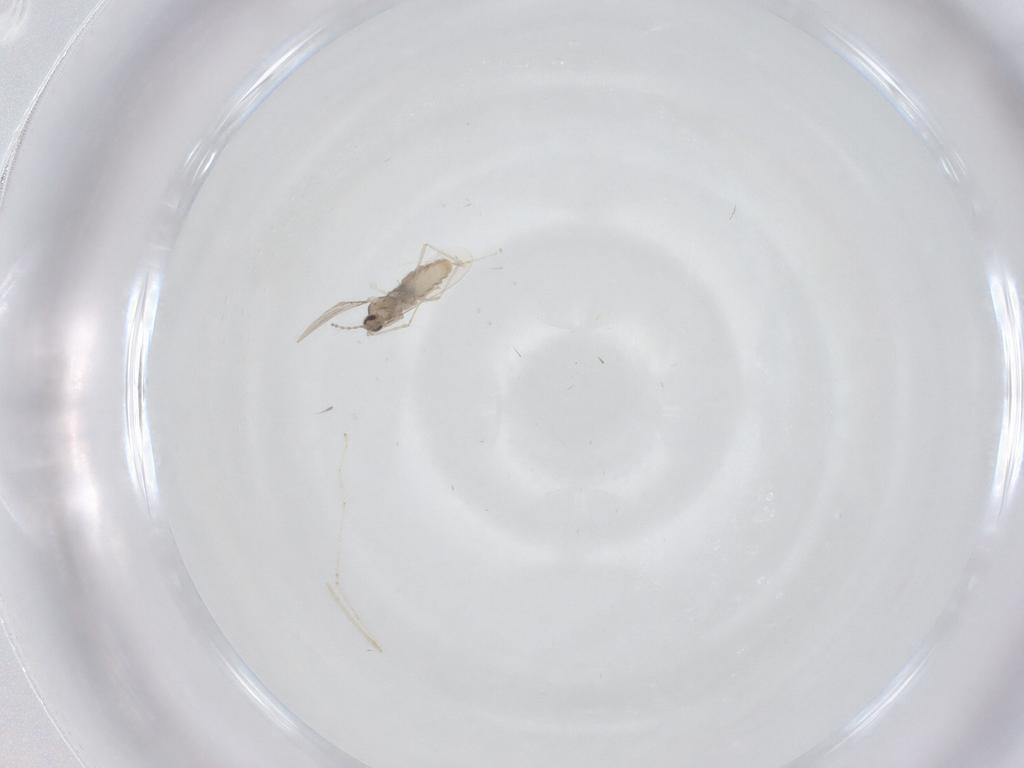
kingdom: Animalia
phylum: Arthropoda
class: Insecta
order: Diptera
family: Cecidomyiidae
